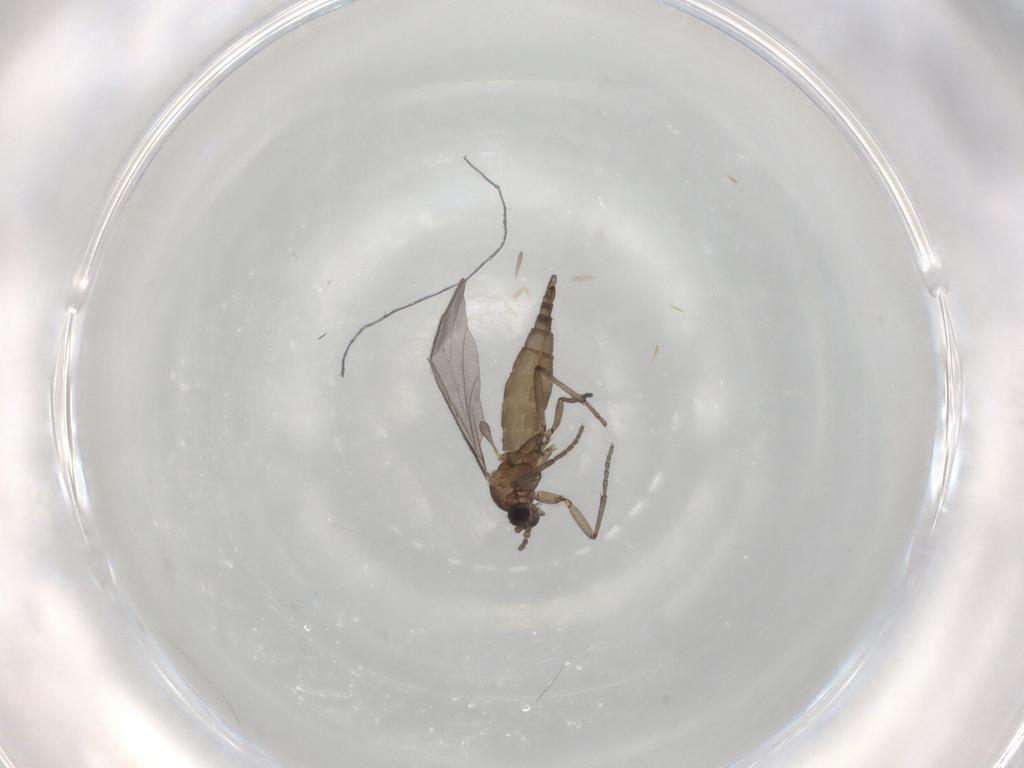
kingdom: Animalia
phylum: Arthropoda
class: Insecta
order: Diptera
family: Sciaridae
